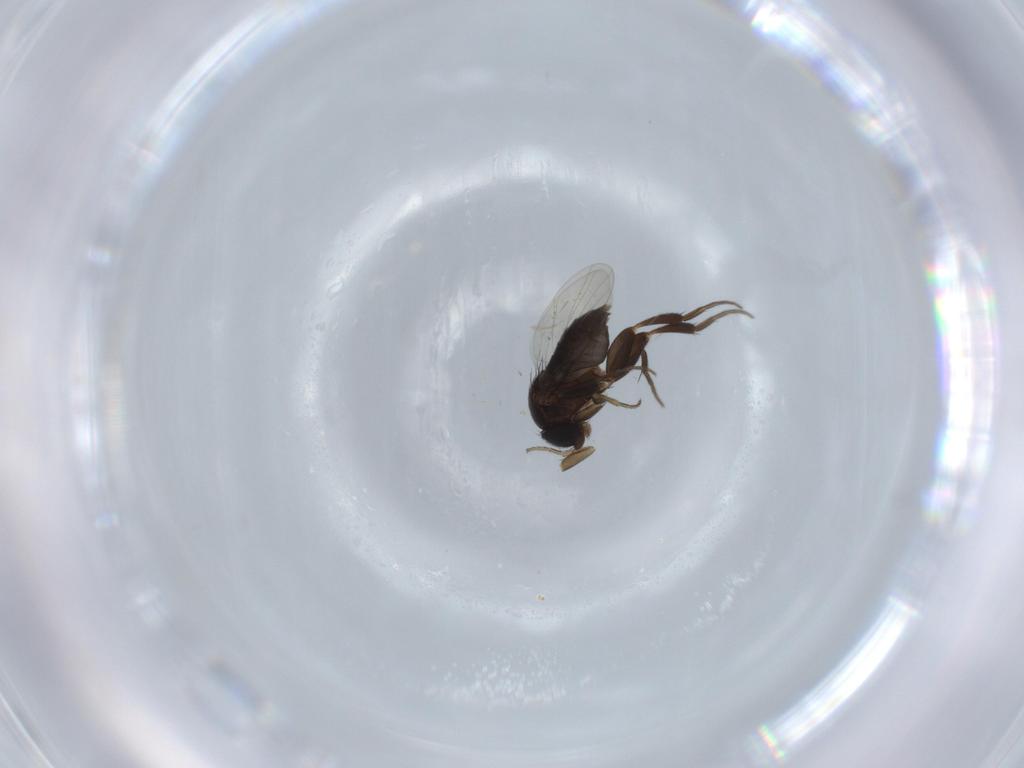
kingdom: Animalia
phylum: Arthropoda
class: Insecta
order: Diptera
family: Phoridae
